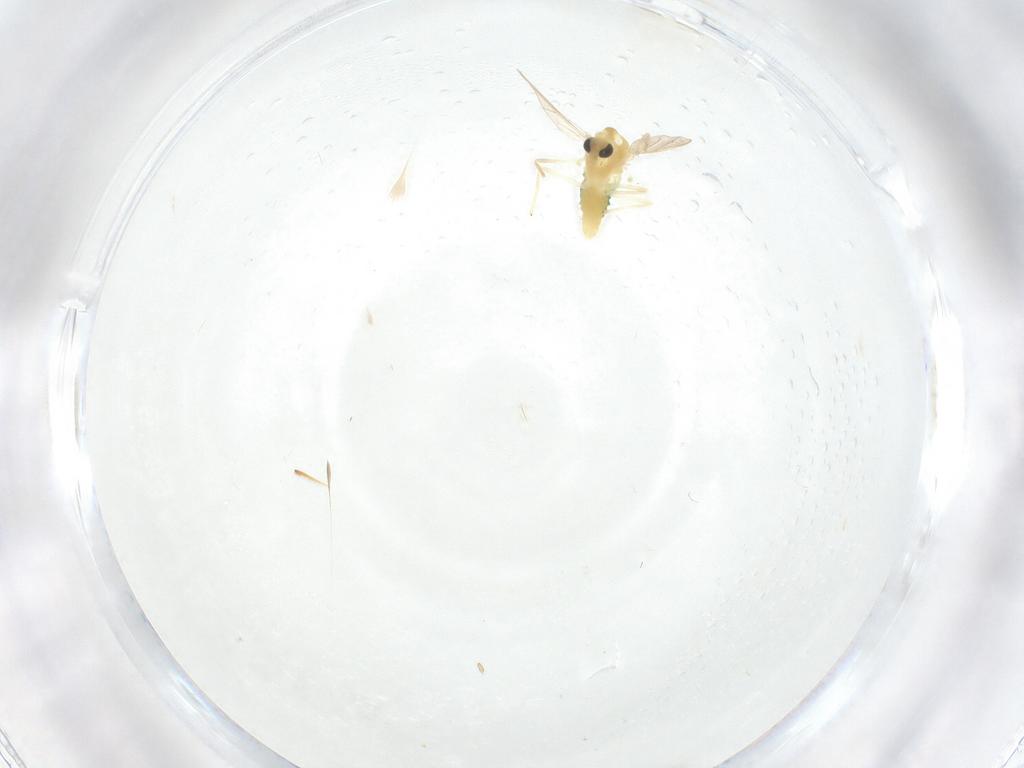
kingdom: Animalia
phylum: Arthropoda
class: Insecta
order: Diptera
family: Chironomidae
